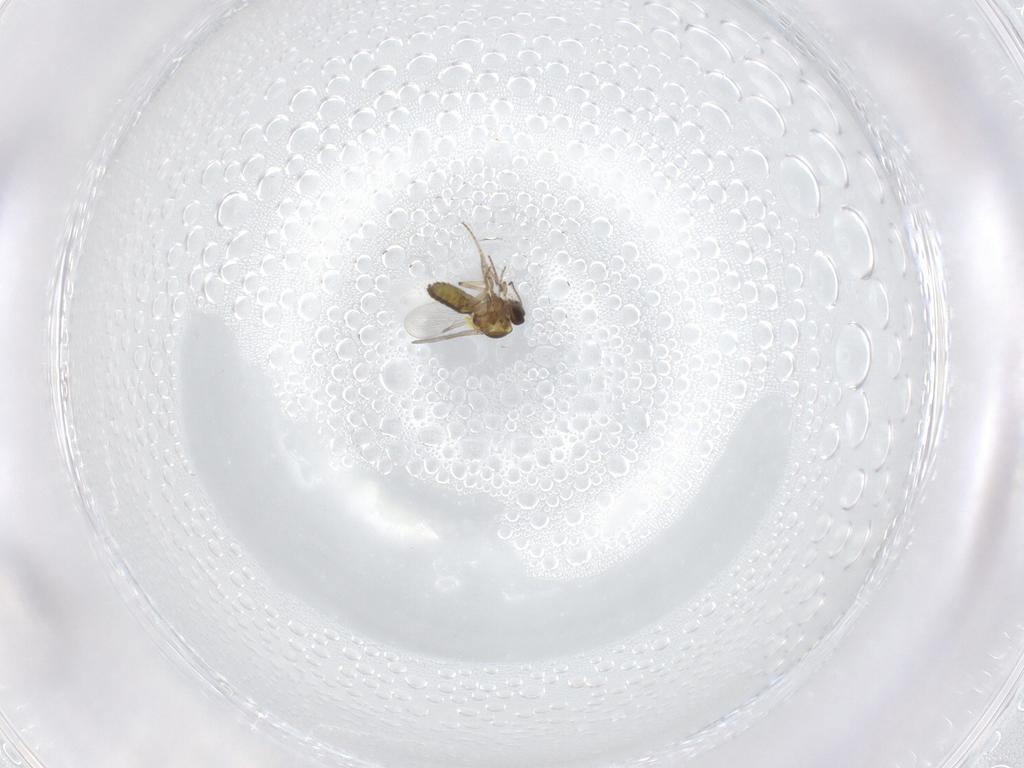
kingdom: Animalia
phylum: Arthropoda
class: Insecta
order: Diptera
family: Ceratopogonidae
